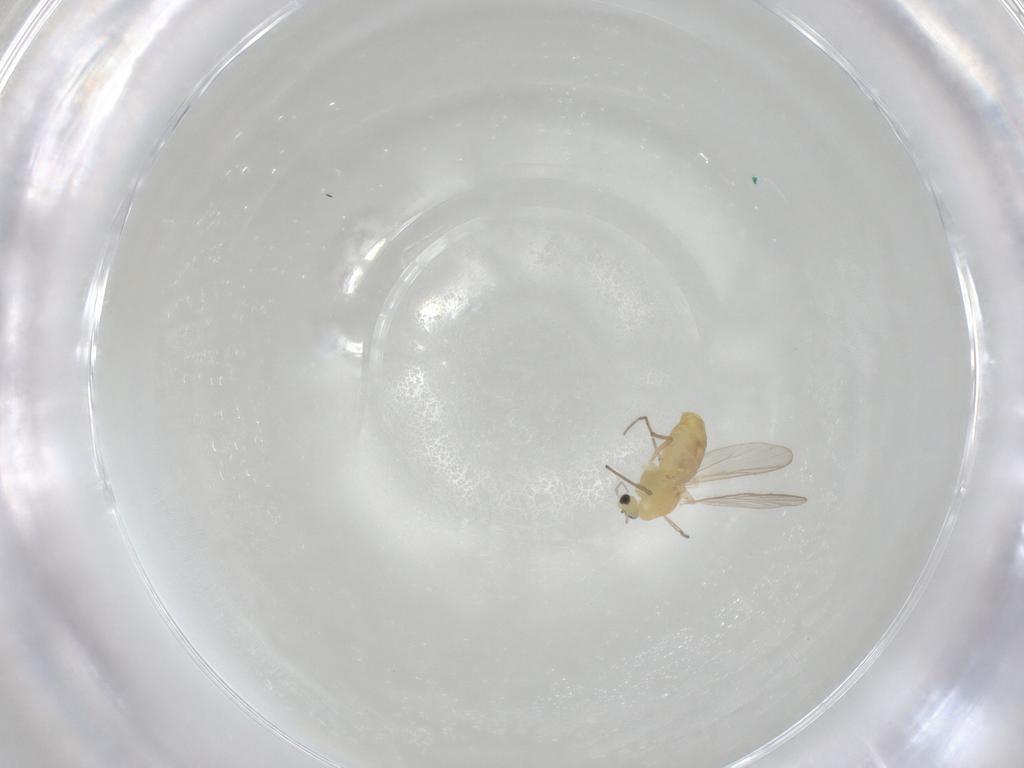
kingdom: Animalia
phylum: Arthropoda
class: Insecta
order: Diptera
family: Chironomidae
